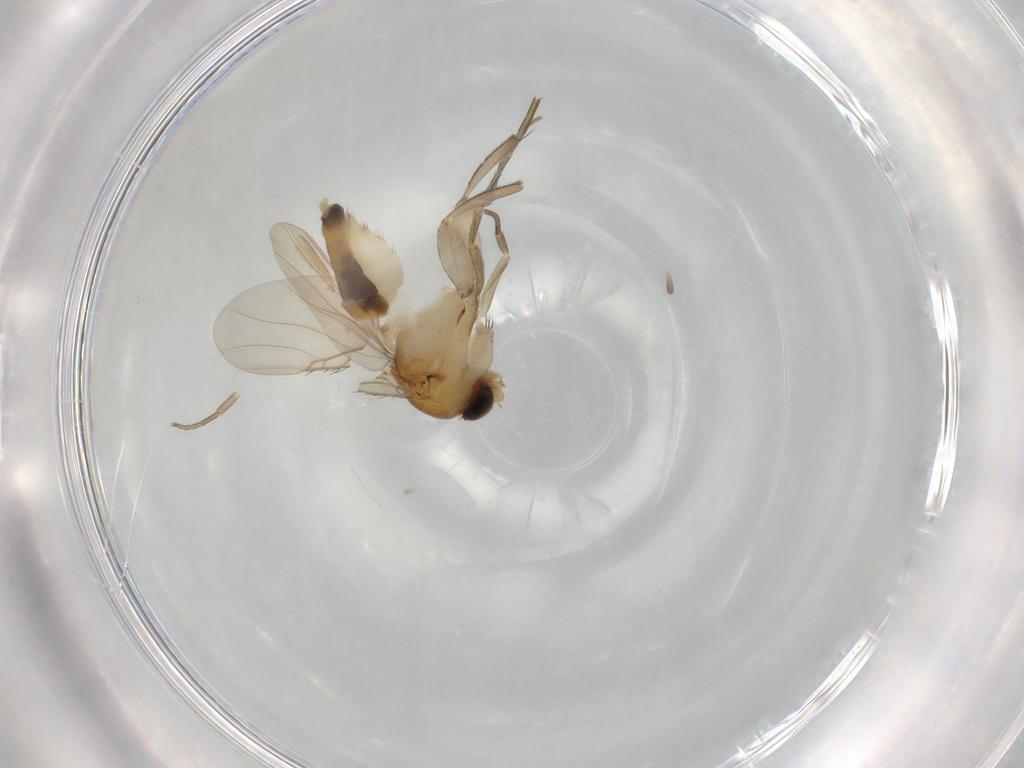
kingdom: Animalia
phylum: Arthropoda
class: Insecta
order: Diptera
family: Phoridae
